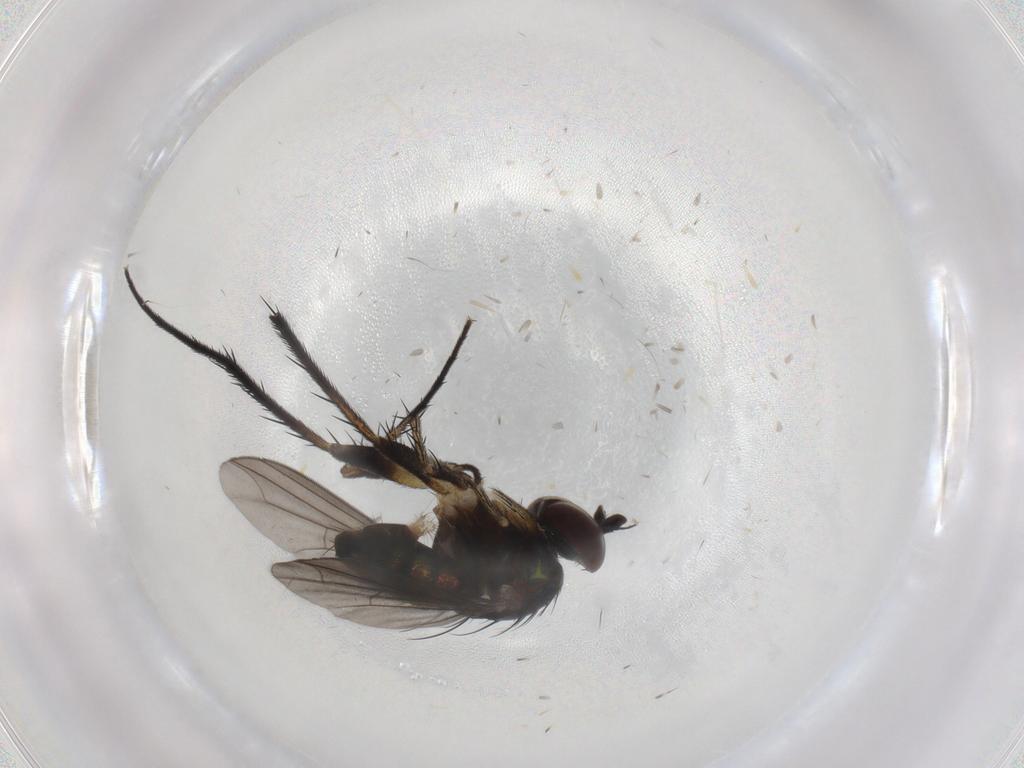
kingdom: Animalia
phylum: Arthropoda
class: Insecta
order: Diptera
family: Dolichopodidae
